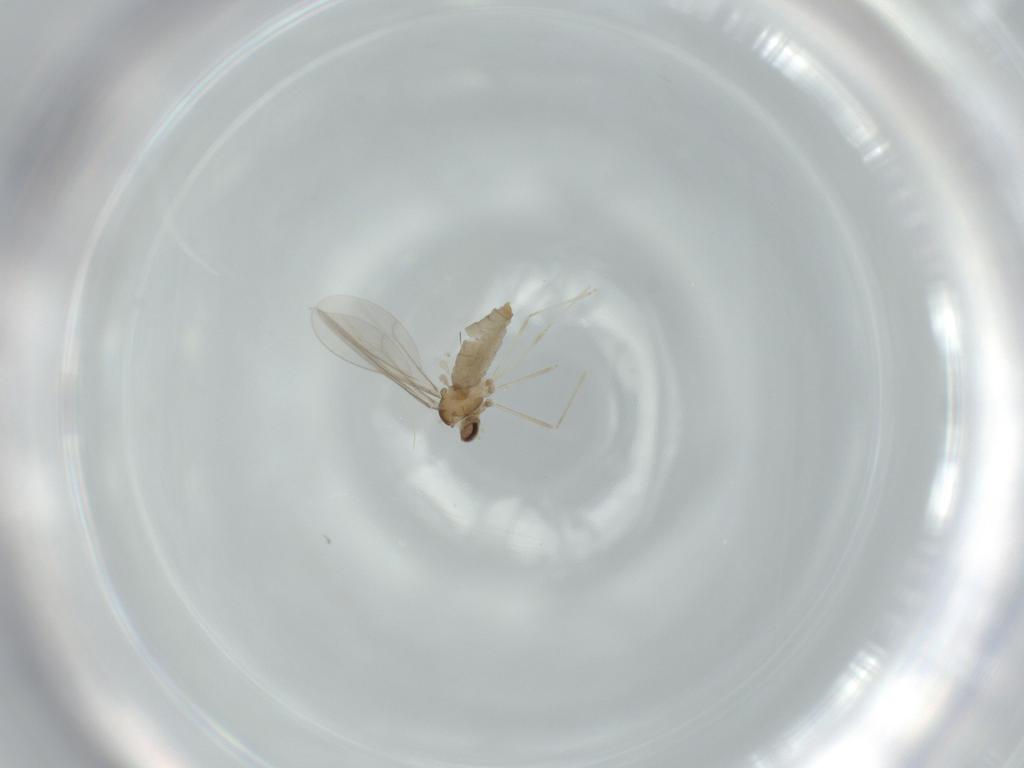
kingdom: Animalia
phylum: Arthropoda
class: Insecta
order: Diptera
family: Cecidomyiidae
